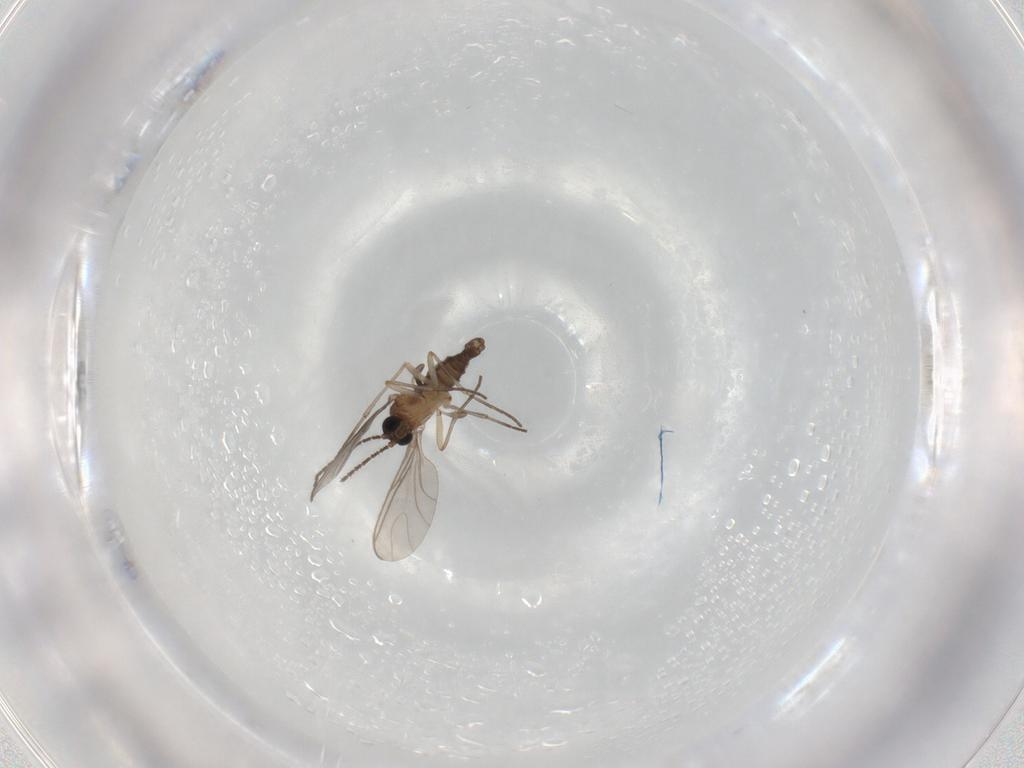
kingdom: Animalia
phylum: Arthropoda
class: Insecta
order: Diptera
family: Sciaridae
